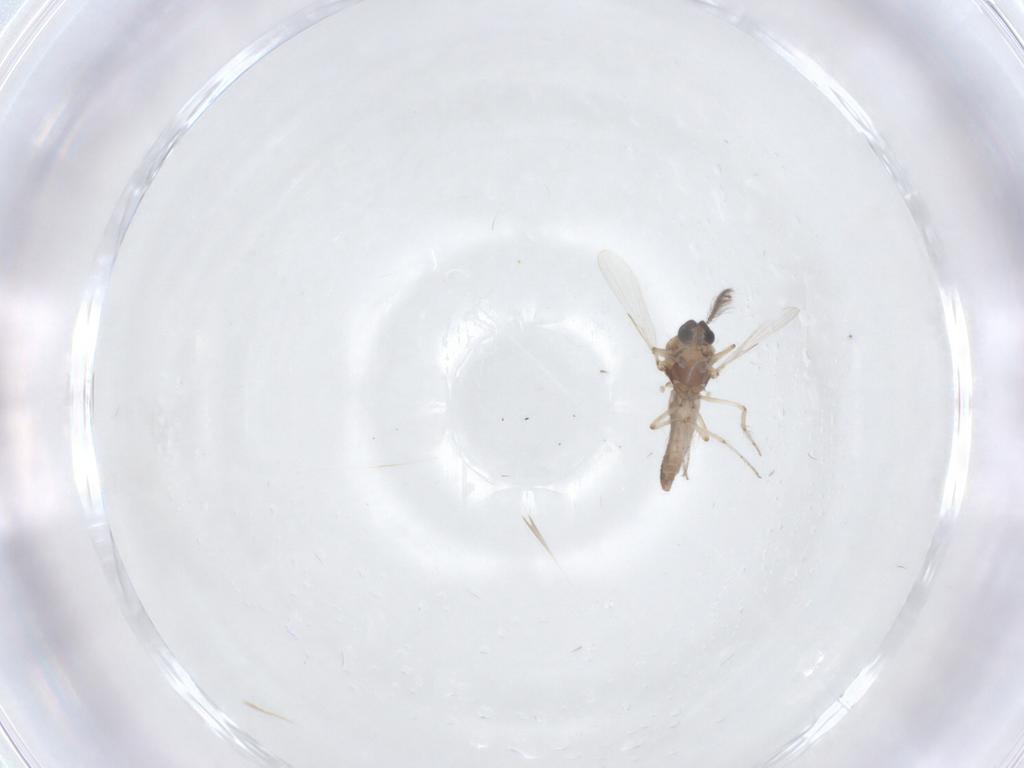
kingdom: Animalia
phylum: Arthropoda
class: Insecta
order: Diptera
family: Ceratopogonidae
